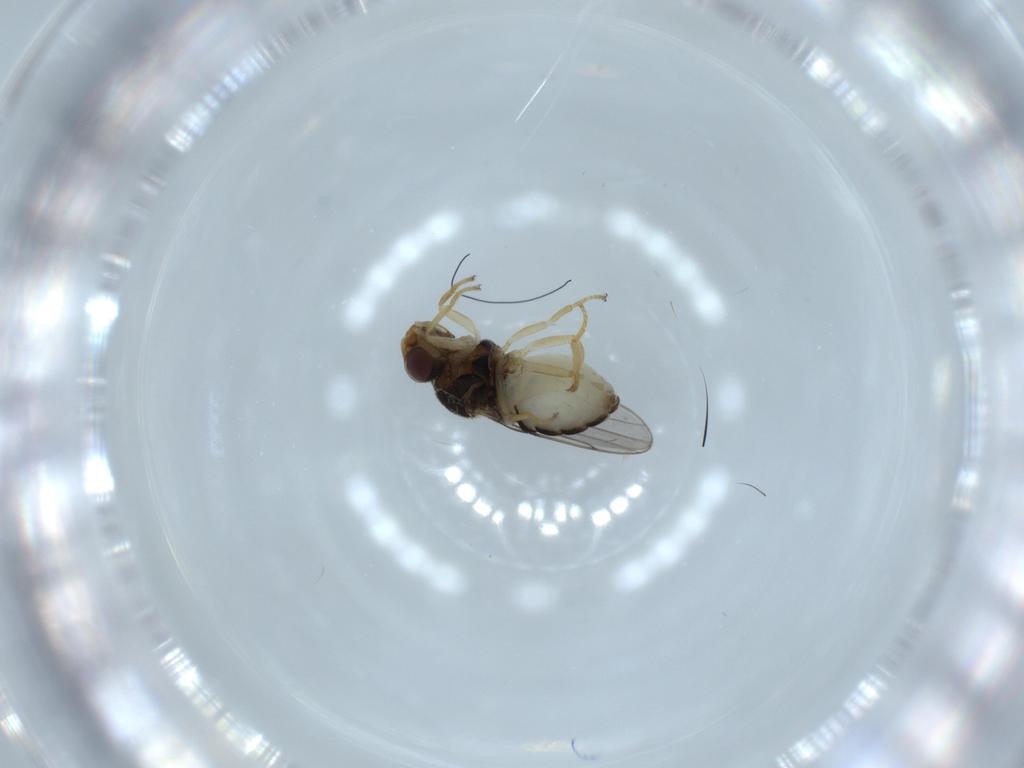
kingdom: Animalia
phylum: Arthropoda
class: Insecta
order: Diptera
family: Chloropidae
